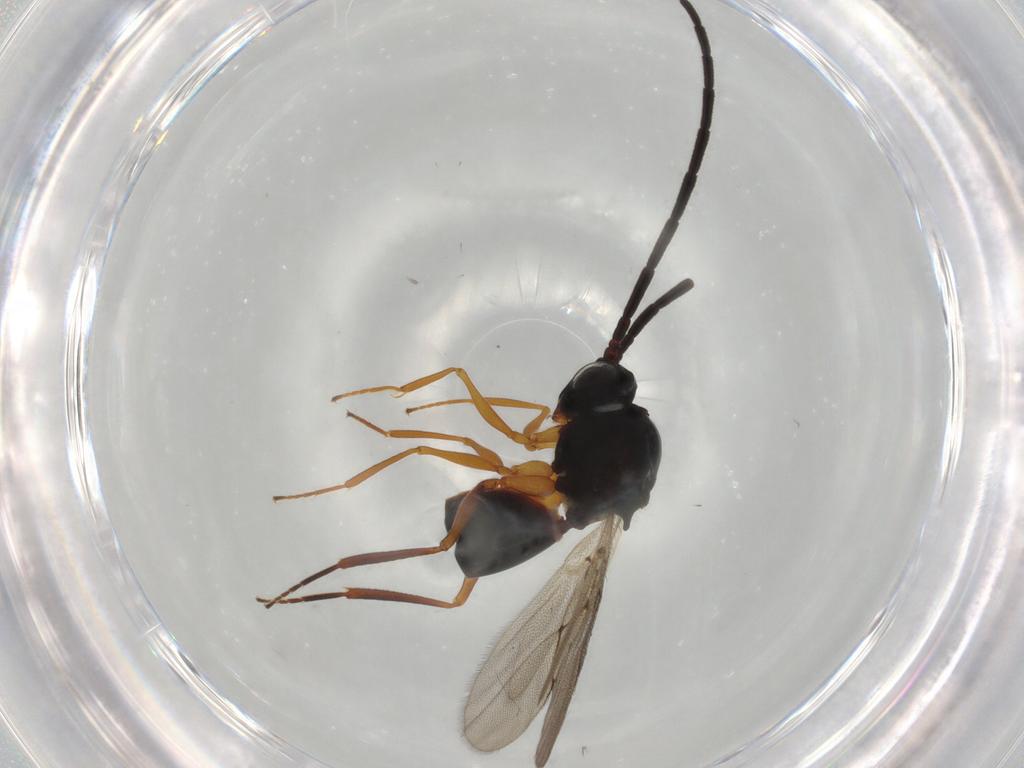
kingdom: Animalia
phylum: Arthropoda
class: Insecta
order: Hymenoptera
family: Figitidae
